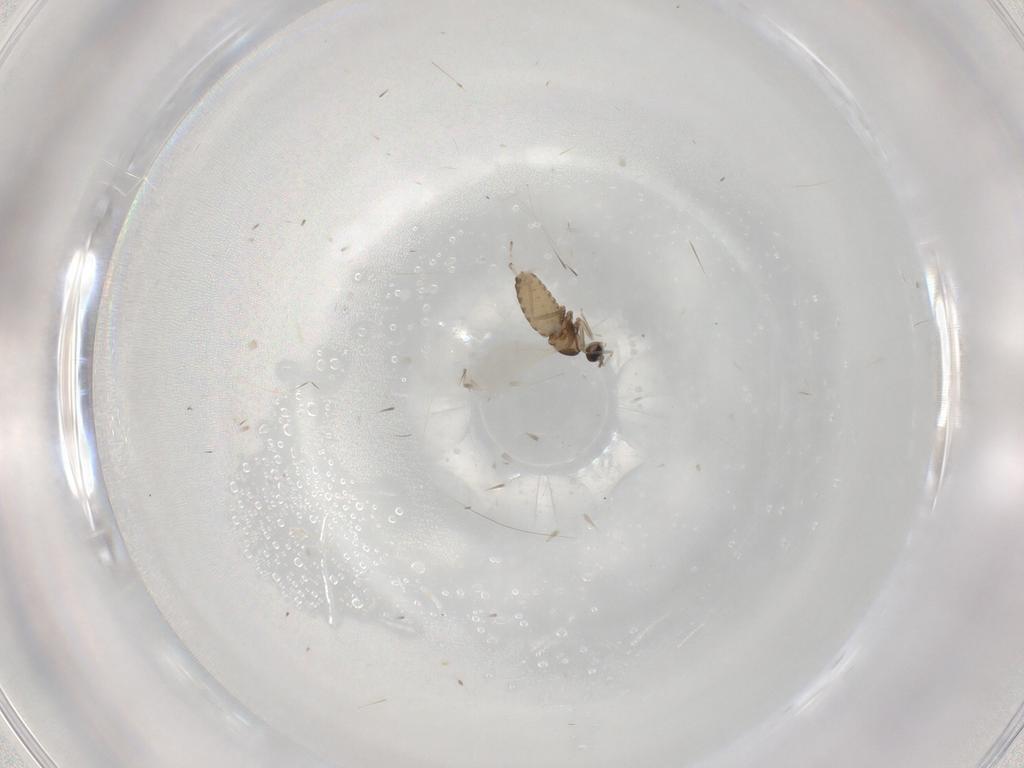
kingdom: Animalia
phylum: Arthropoda
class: Insecta
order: Diptera
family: Cecidomyiidae
